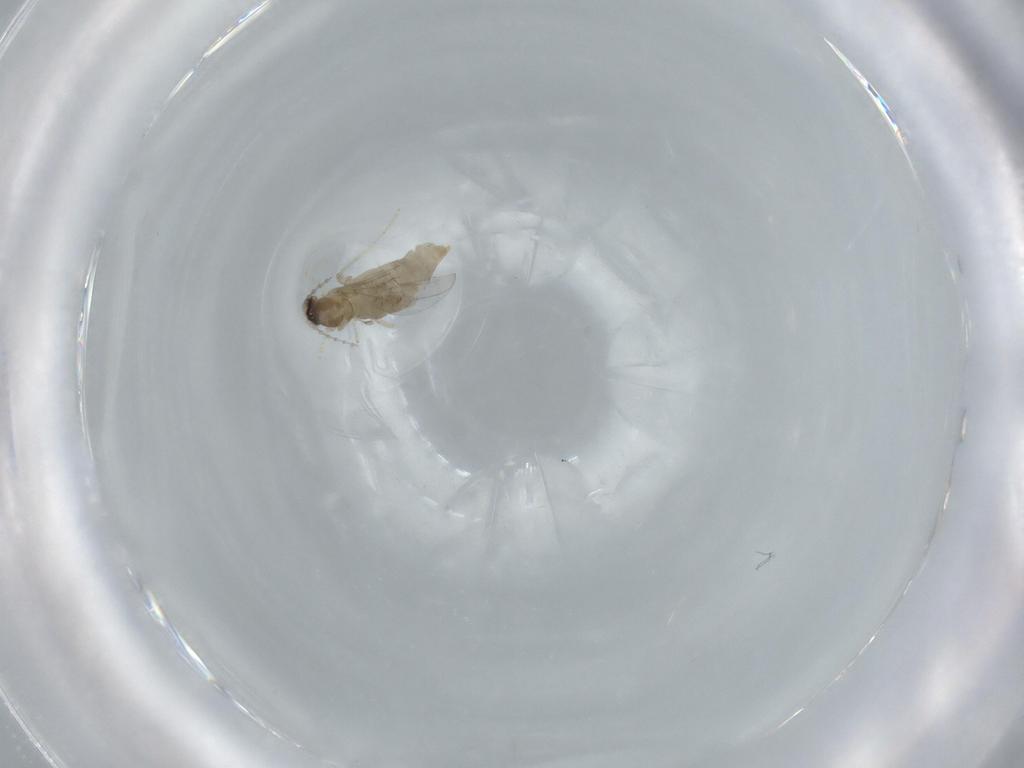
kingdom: Animalia
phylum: Arthropoda
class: Insecta
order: Diptera
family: Cecidomyiidae
